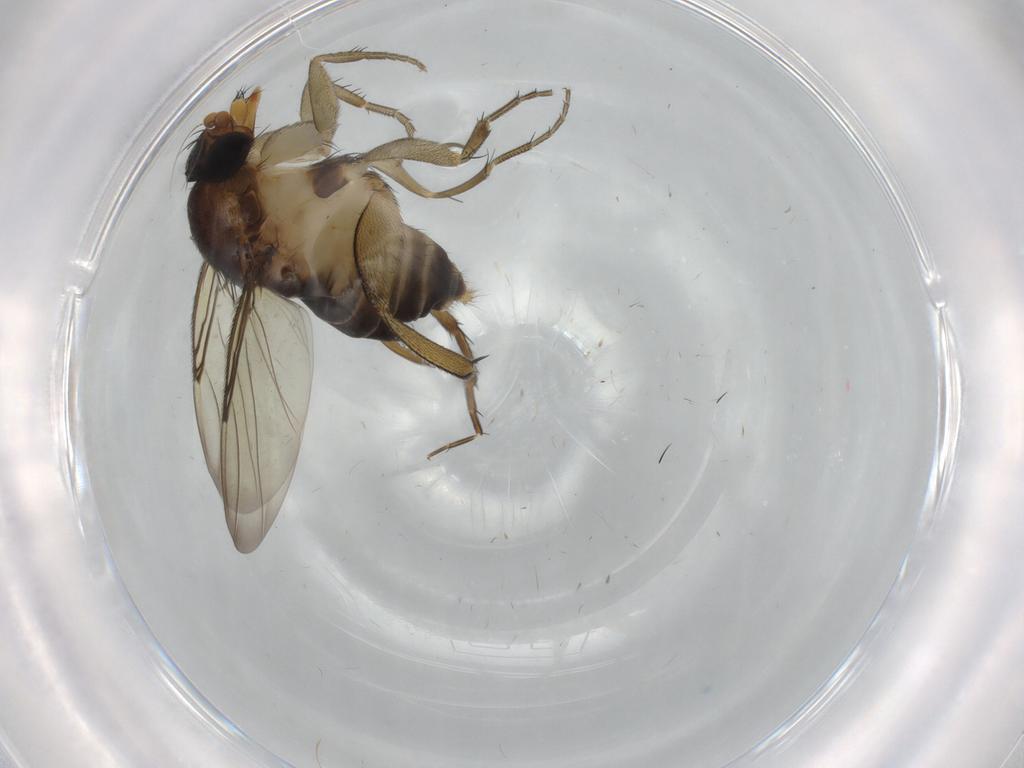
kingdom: Animalia
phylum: Arthropoda
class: Insecta
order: Diptera
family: Phoridae
